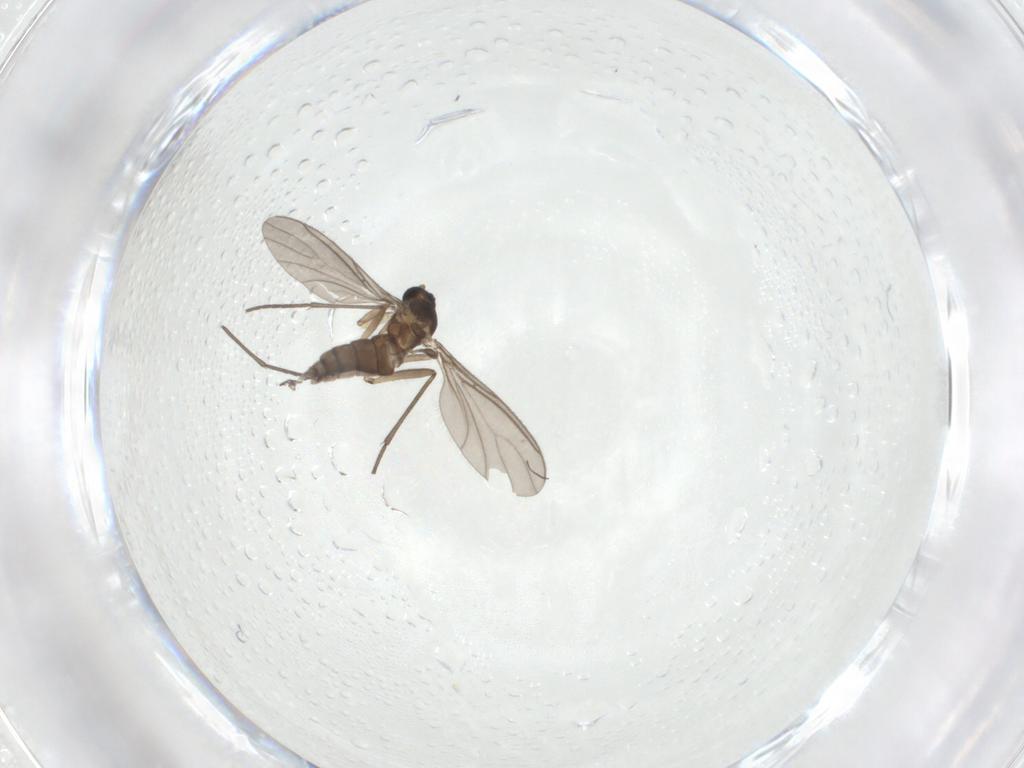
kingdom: Animalia
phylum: Arthropoda
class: Insecta
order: Diptera
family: Sciaridae
